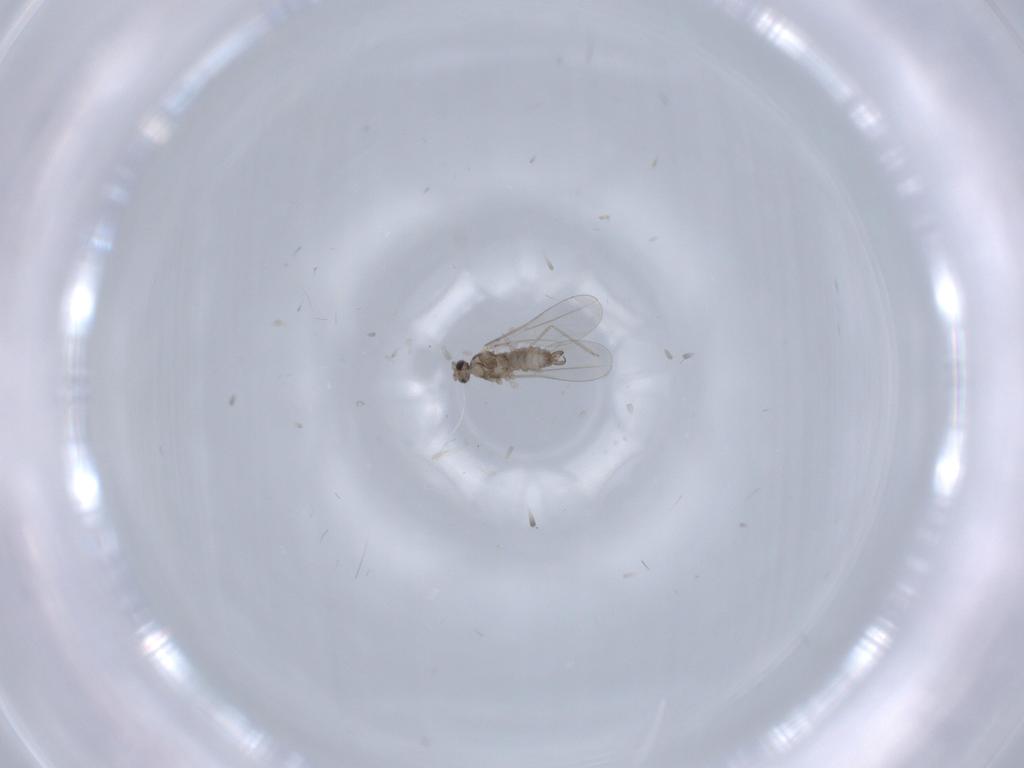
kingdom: Animalia
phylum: Arthropoda
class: Insecta
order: Diptera
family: Cecidomyiidae
